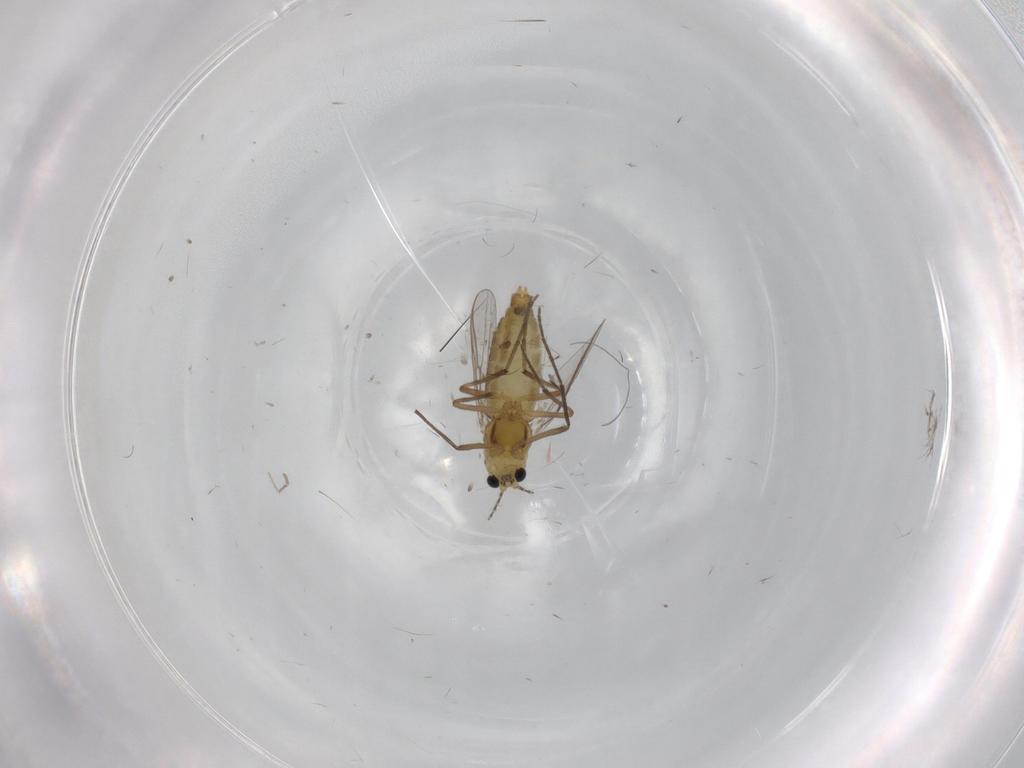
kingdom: Animalia
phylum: Arthropoda
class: Insecta
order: Diptera
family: Chironomidae
